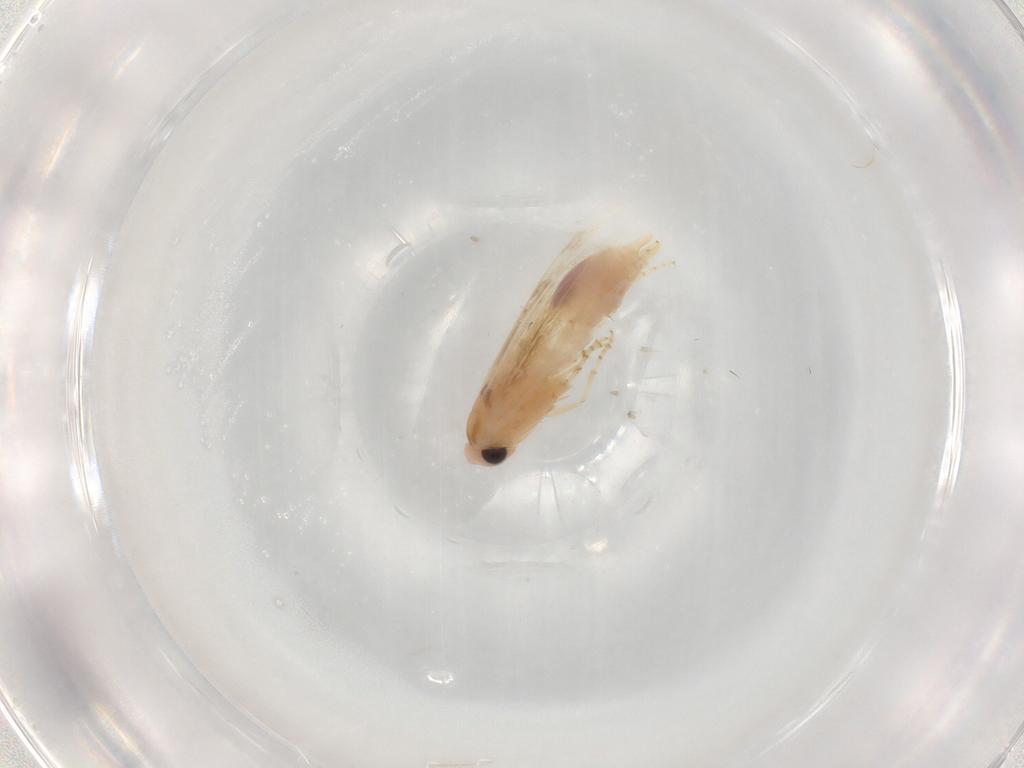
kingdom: Animalia
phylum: Arthropoda
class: Insecta
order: Lepidoptera
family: Bucculatricidae
